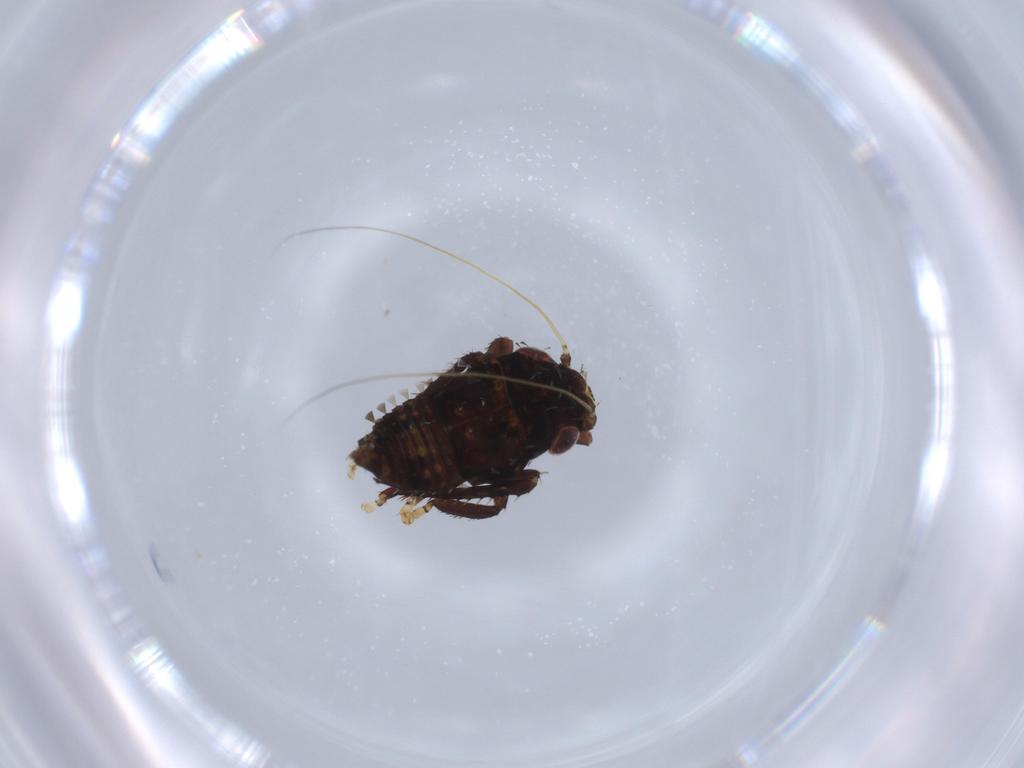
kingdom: Animalia
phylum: Arthropoda
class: Insecta
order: Hemiptera
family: Cicadellidae
